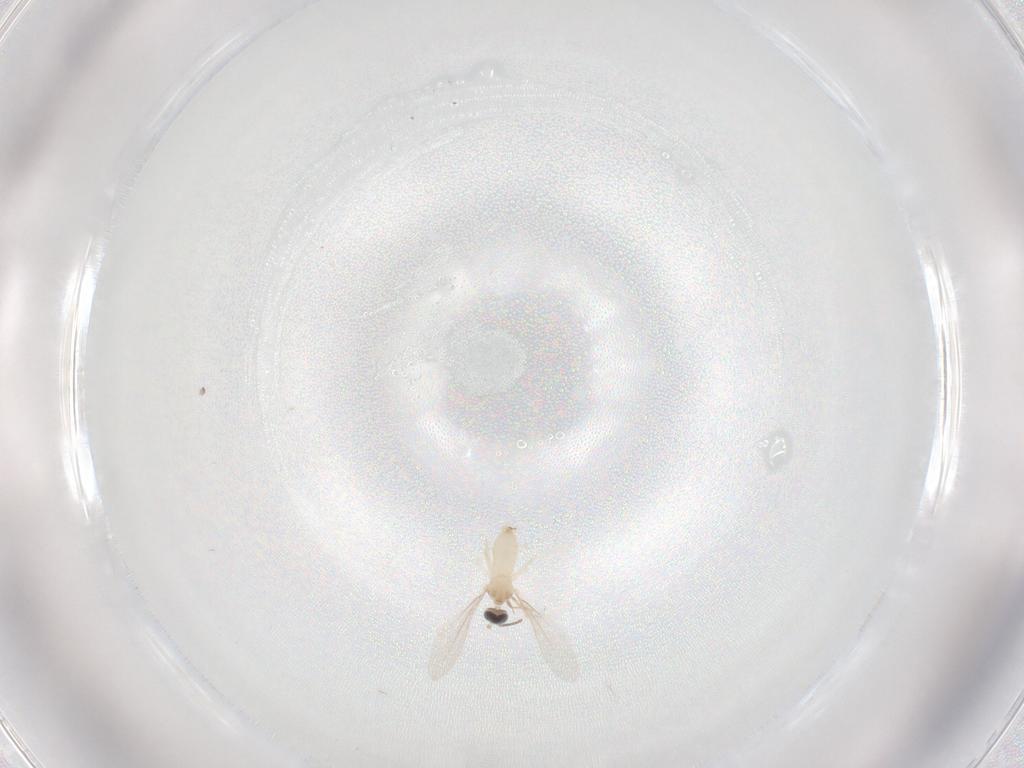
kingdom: Animalia
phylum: Arthropoda
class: Insecta
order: Diptera
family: Cecidomyiidae
